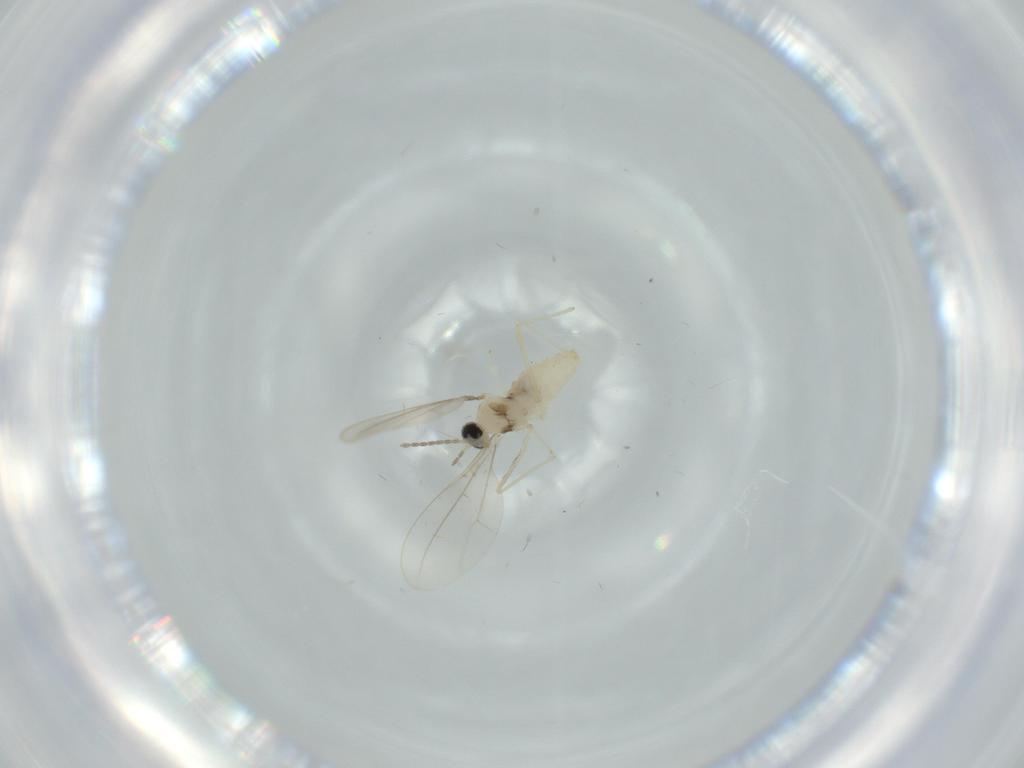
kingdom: Animalia
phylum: Arthropoda
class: Insecta
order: Diptera
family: Cecidomyiidae
